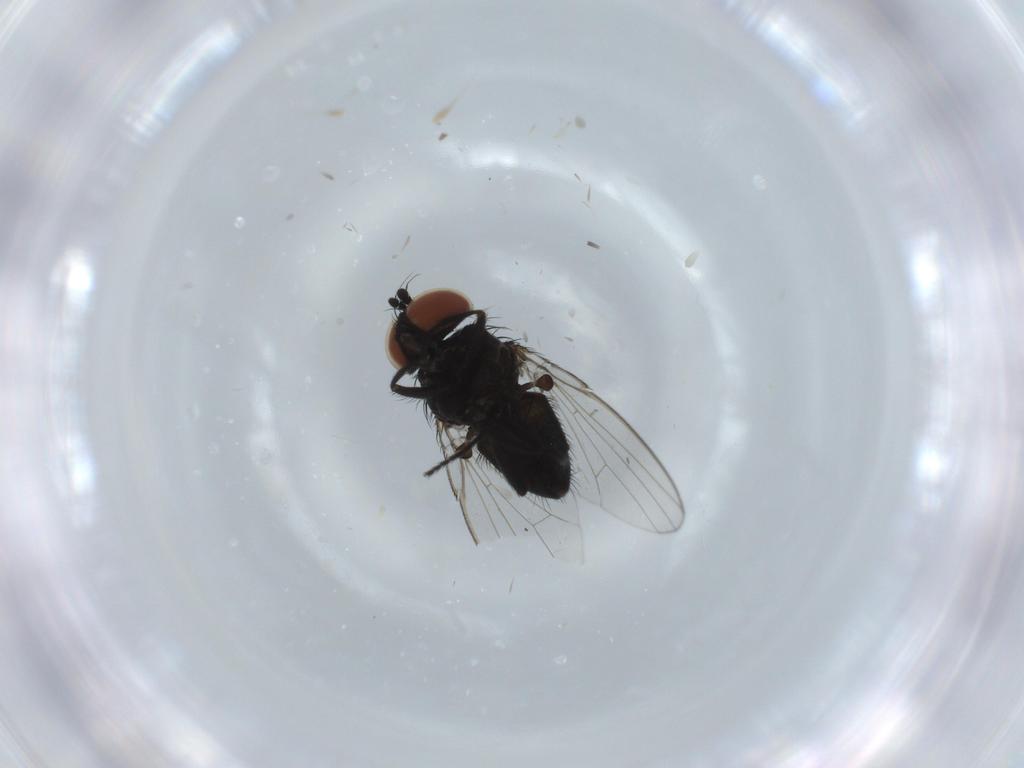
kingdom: Animalia
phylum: Arthropoda
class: Insecta
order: Diptera
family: Milichiidae
